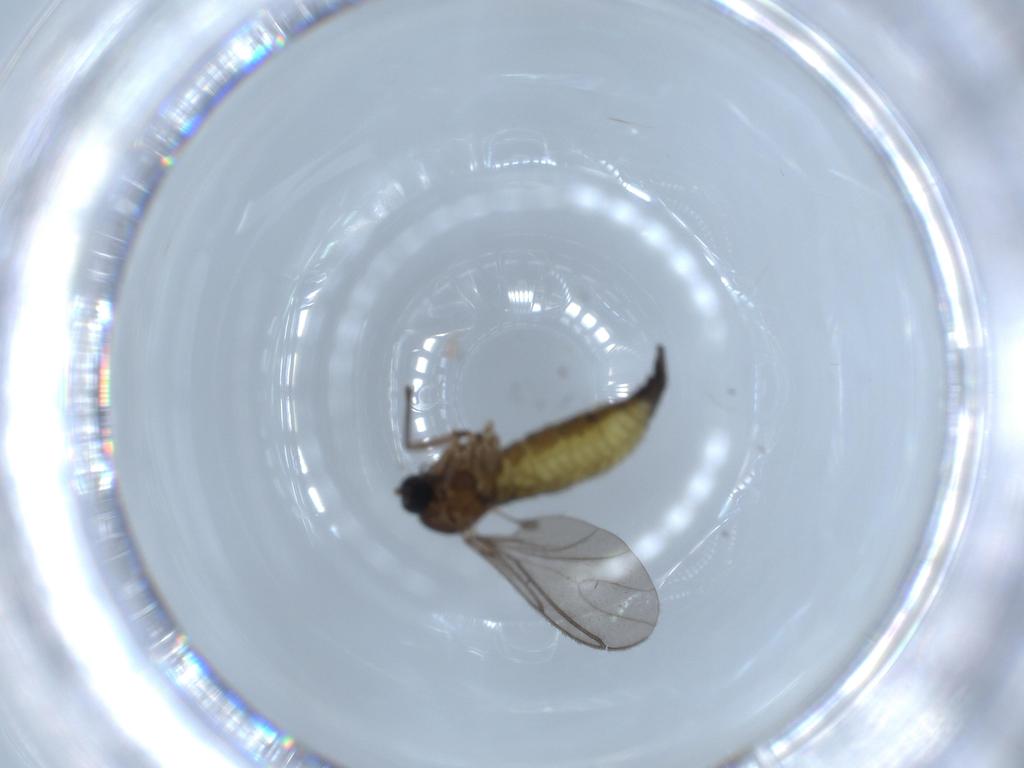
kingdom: Animalia
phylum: Arthropoda
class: Insecta
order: Diptera
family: Sciaridae
